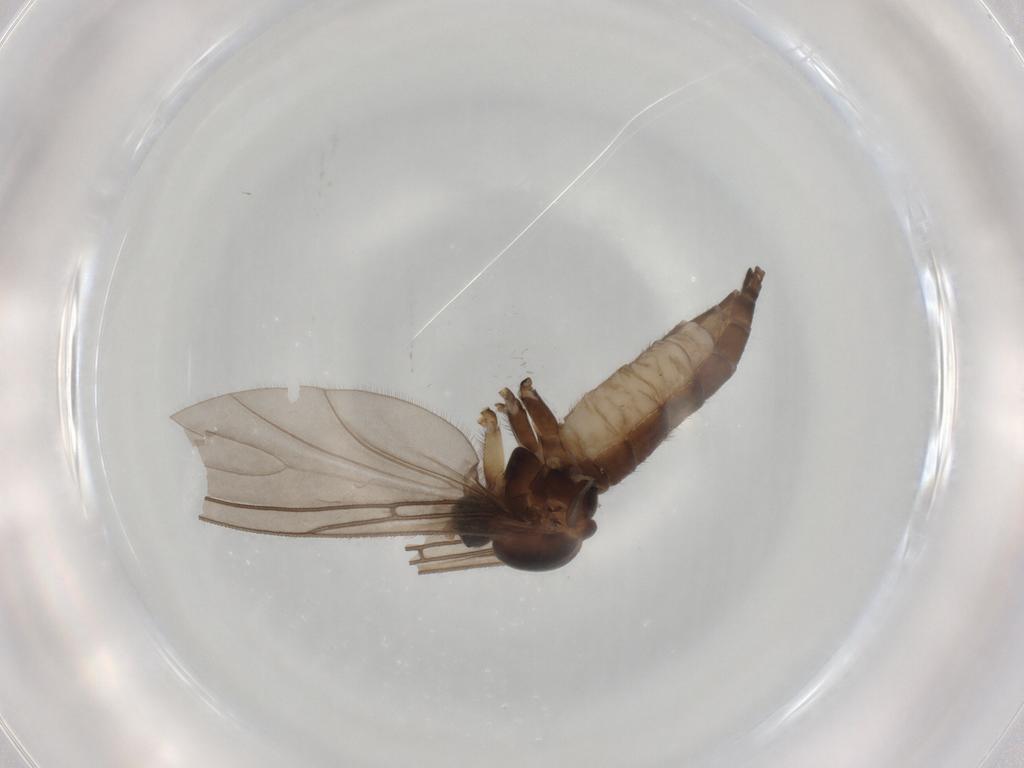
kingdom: Animalia
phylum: Arthropoda
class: Insecta
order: Diptera
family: Sciaridae
